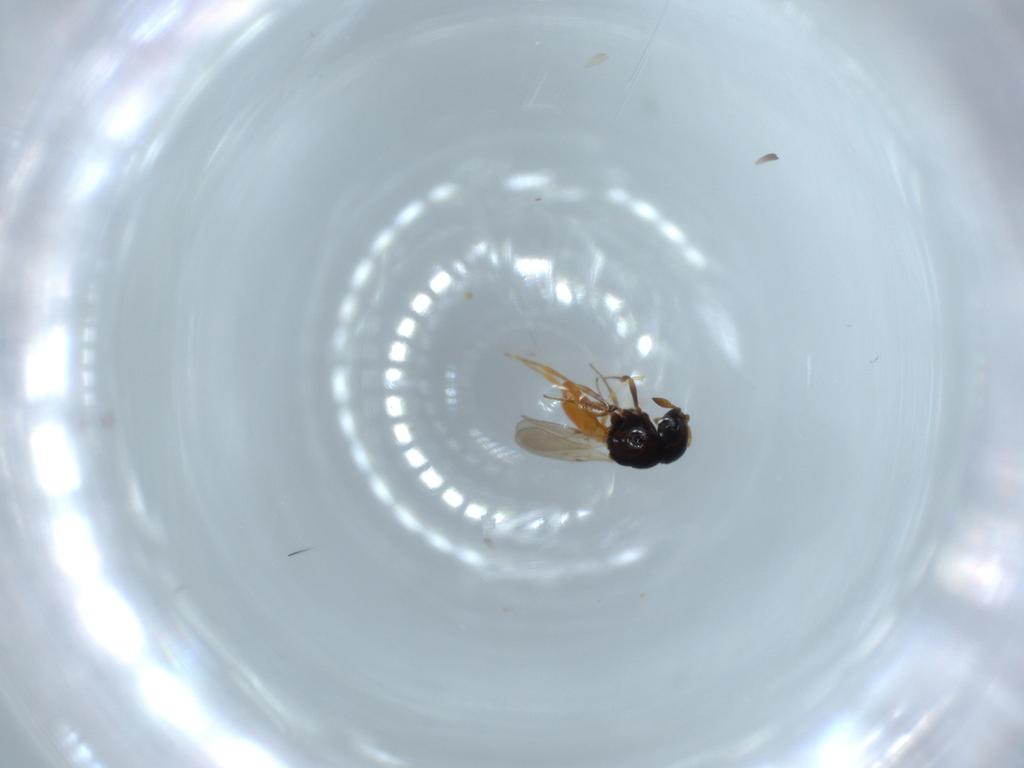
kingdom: Animalia
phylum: Arthropoda
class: Insecta
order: Hymenoptera
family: Scelionidae
